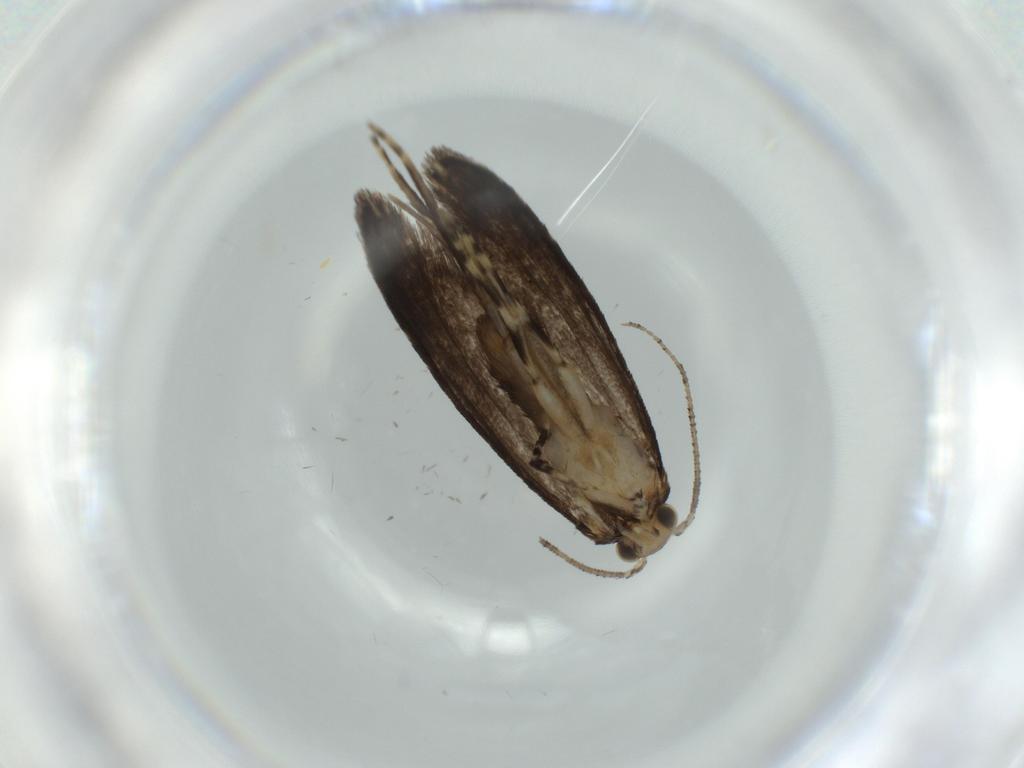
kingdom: Animalia
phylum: Arthropoda
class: Insecta
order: Lepidoptera
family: Tineidae
